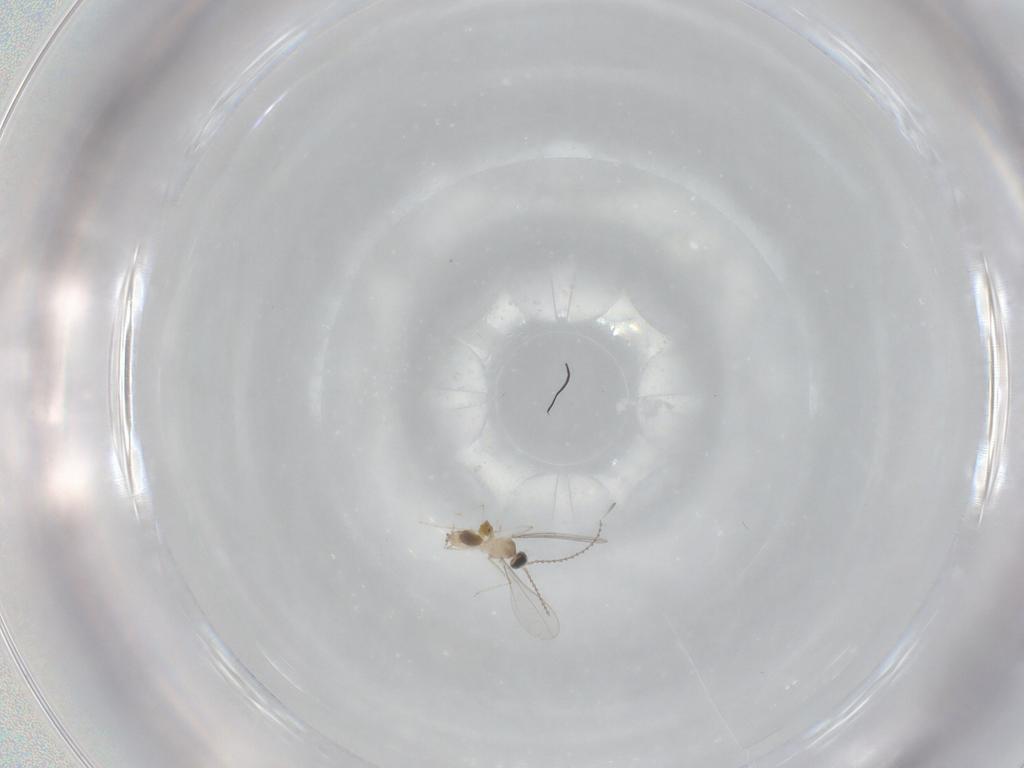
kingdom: Animalia
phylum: Arthropoda
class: Insecta
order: Diptera
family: Cecidomyiidae
